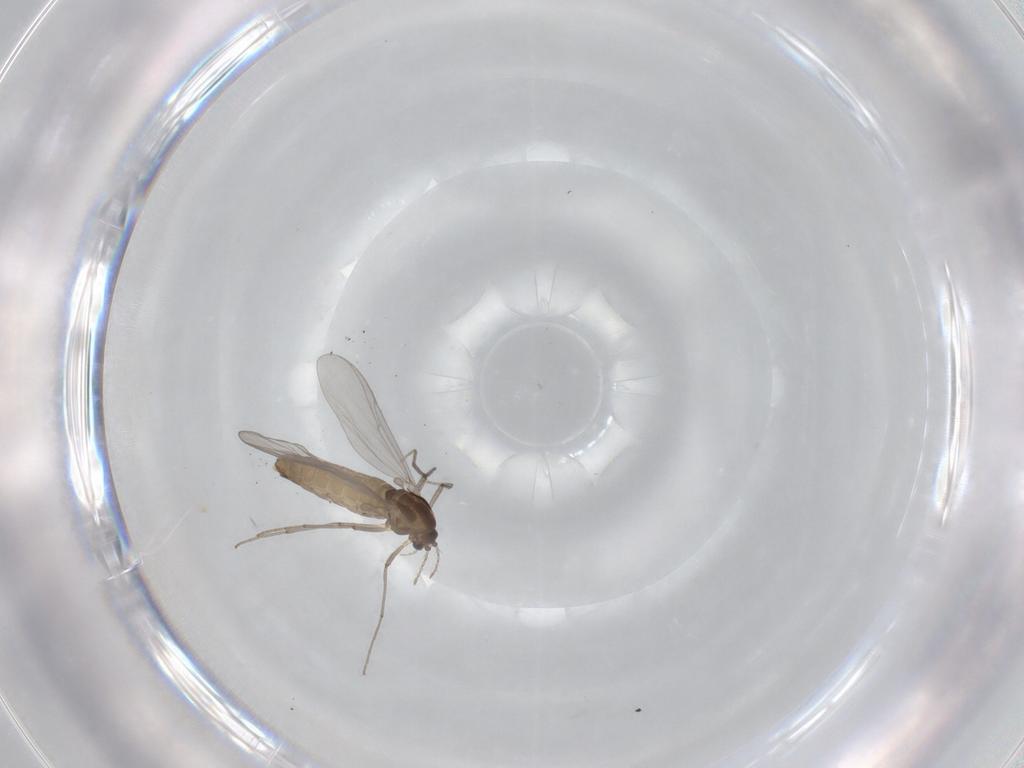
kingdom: Animalia
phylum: Arthropoda
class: Insecta
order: Diptera
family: Chironomidae
